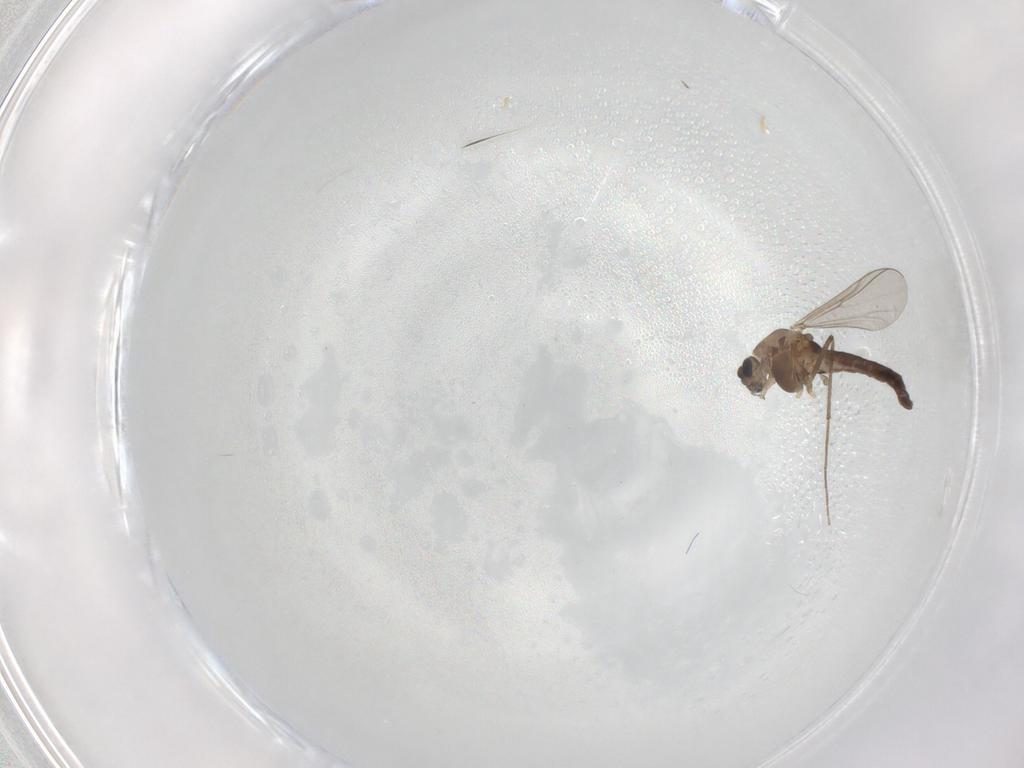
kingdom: Animalia
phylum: Arthropoda
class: Insecta
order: Diptera
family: Chironomidae
